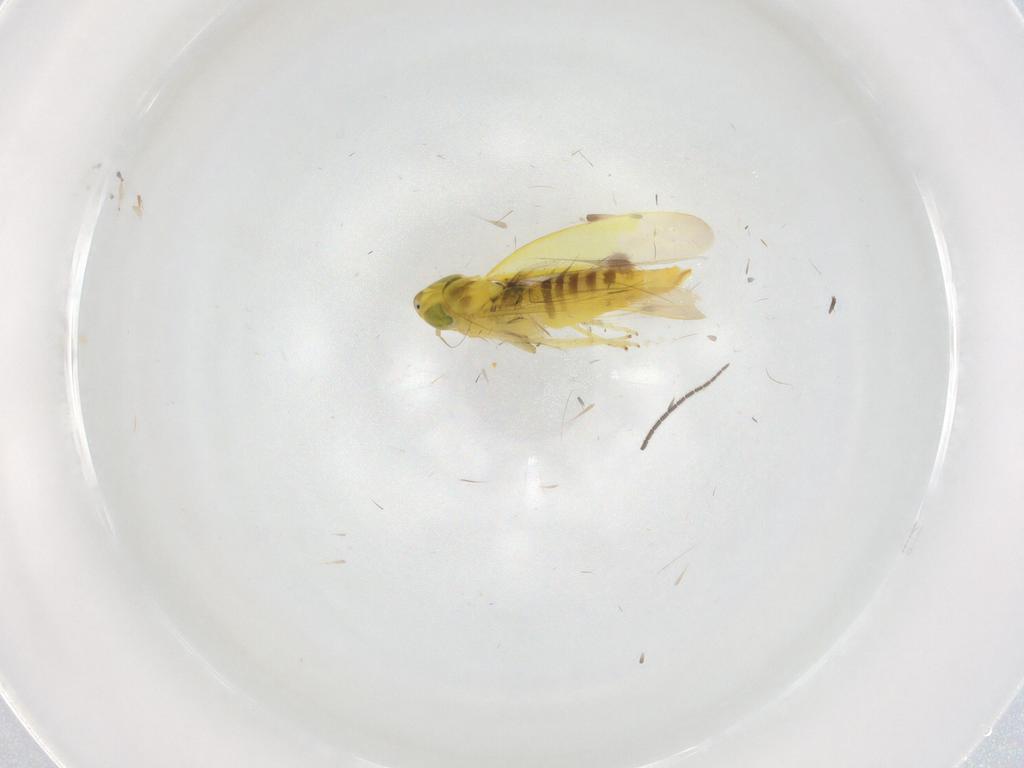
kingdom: Animalia
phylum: Arthropoda
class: Insecta
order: Hemiptera
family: Cicadellidae
